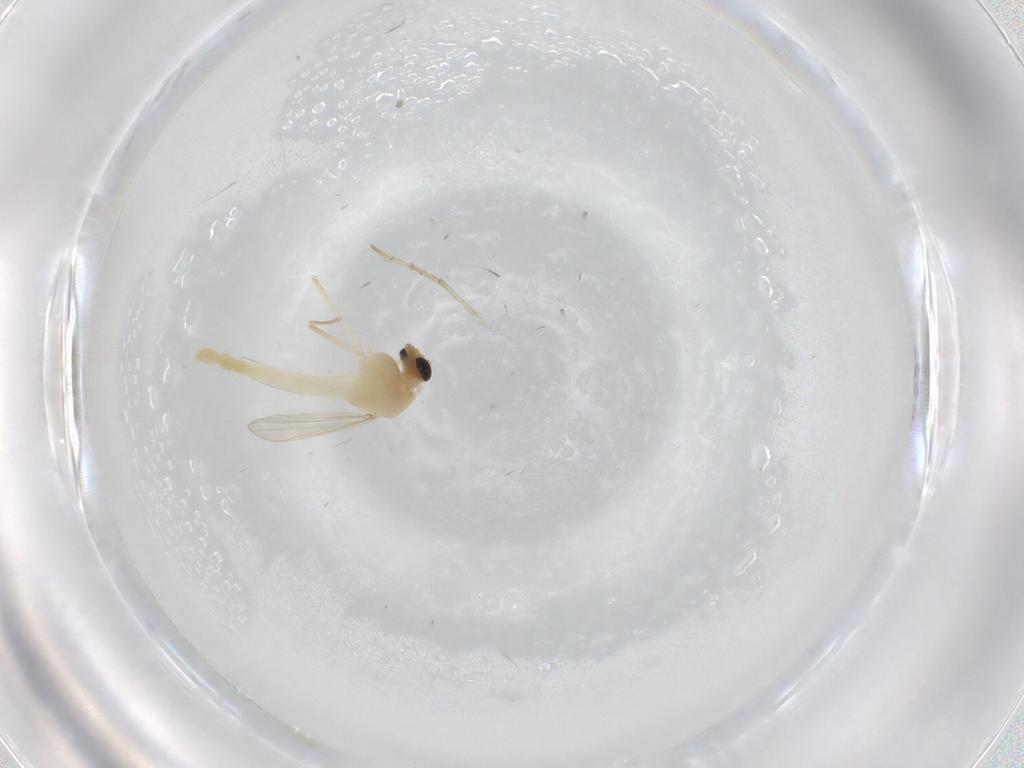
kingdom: Animalia
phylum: Arthropoda
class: Insecta
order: Diptera
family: Chironomidae
